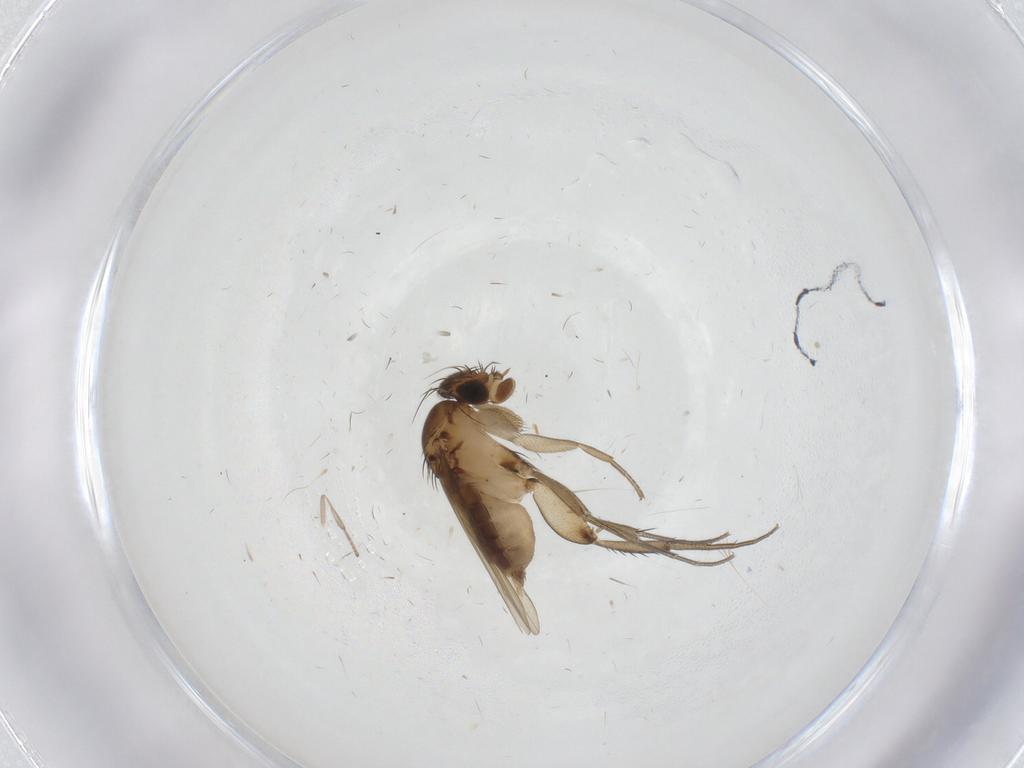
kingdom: Animalia
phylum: Arthropoda
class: Insecta
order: Diptera
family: Phoridae
